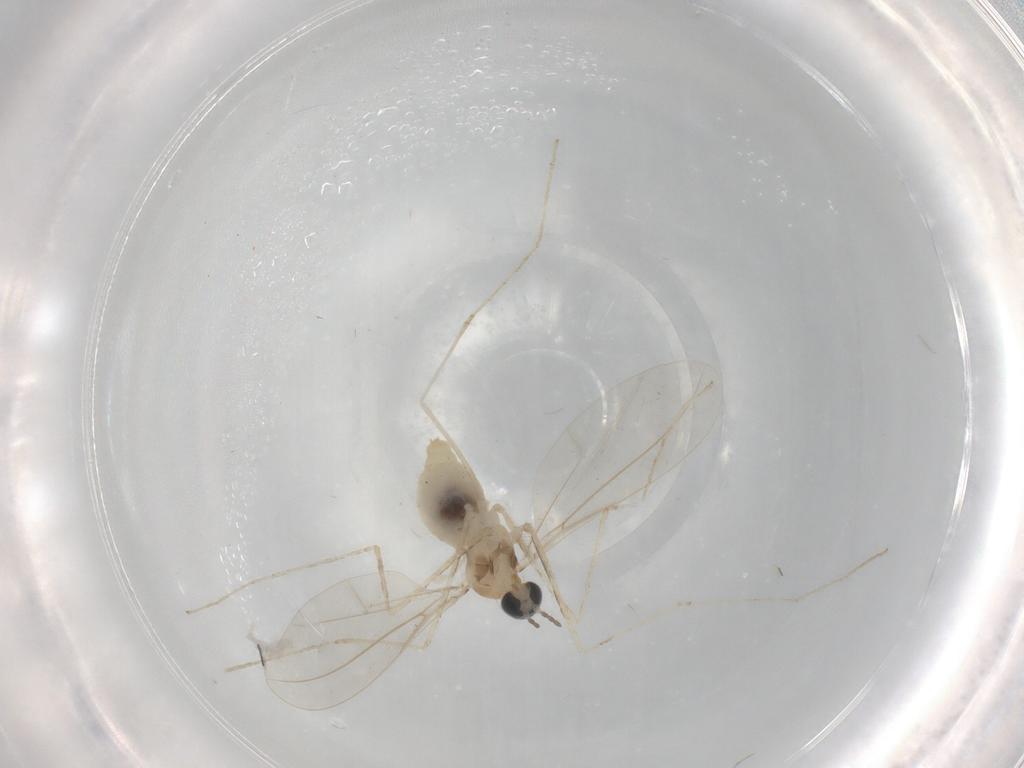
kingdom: Animalia
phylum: Arthropoda
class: Insecta
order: Diptera
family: Cecidomyiidae
